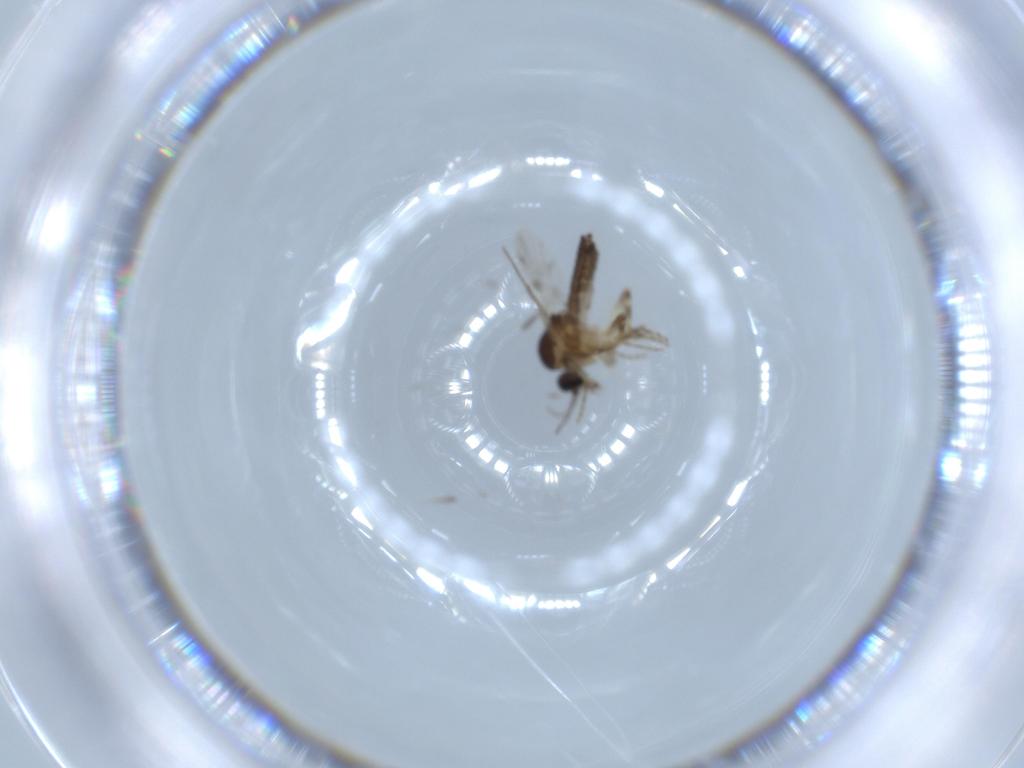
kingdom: Animalia
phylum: Arthropoda
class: Insecta
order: Diptera
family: Ceratopogonidae
